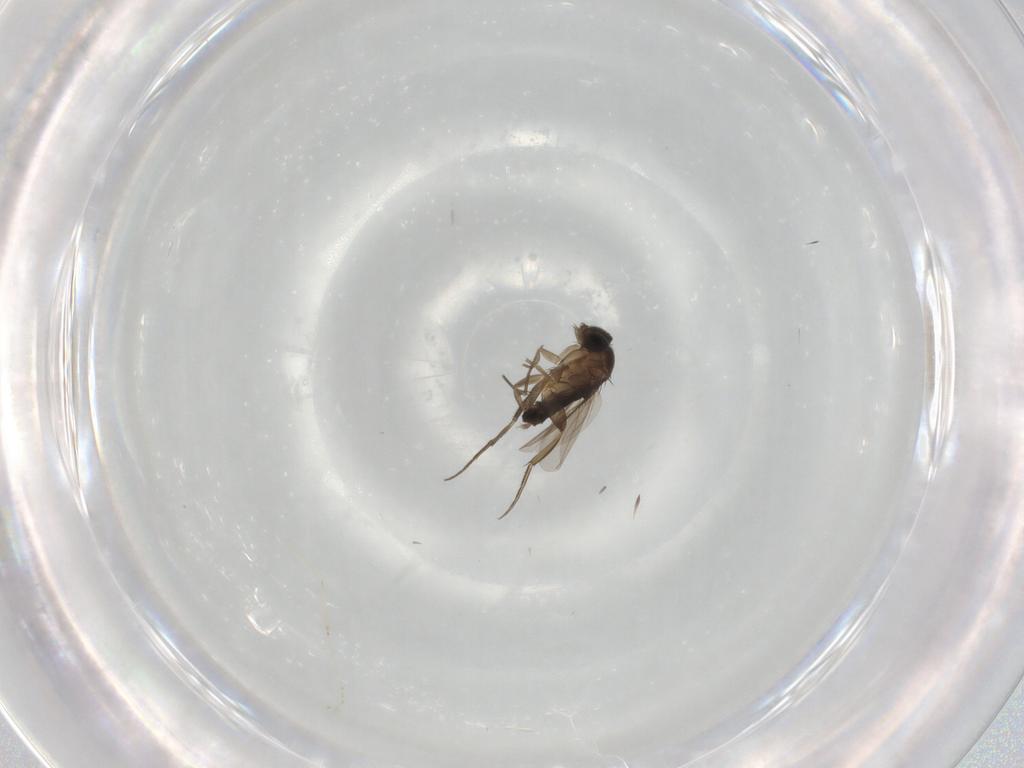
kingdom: Animalia
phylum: Arthropoda
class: Insecta
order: Diptera
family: Phoridae
